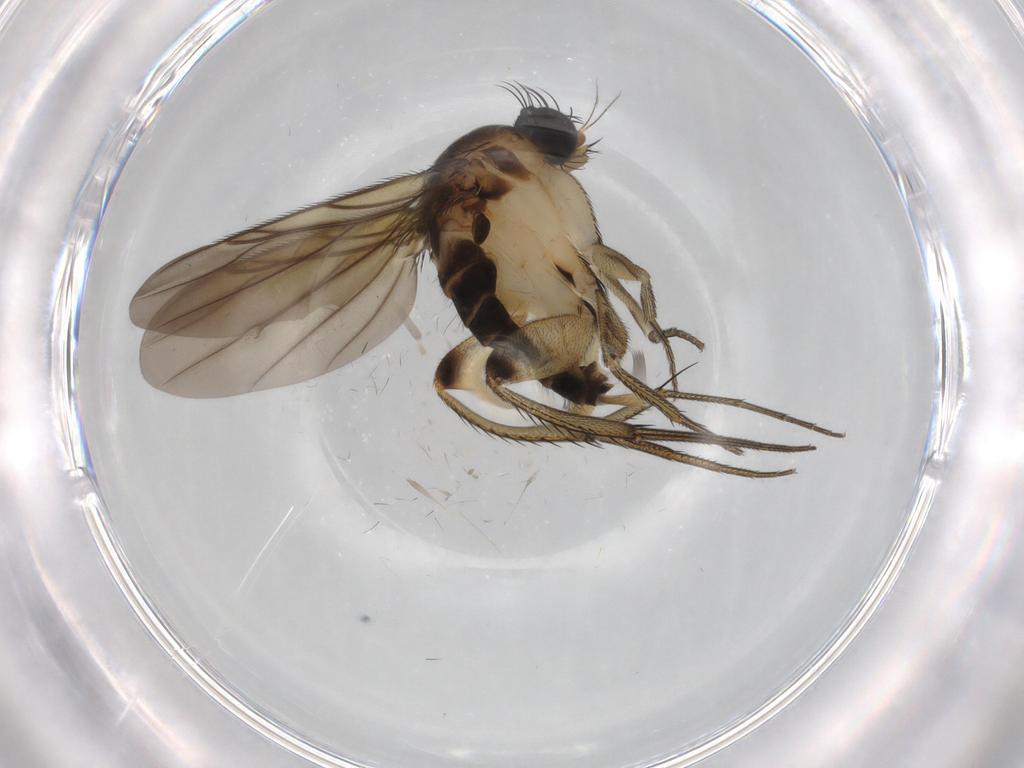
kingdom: Animalia
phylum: Arthropoda
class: Insecta
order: Diptera
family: Phoridae
